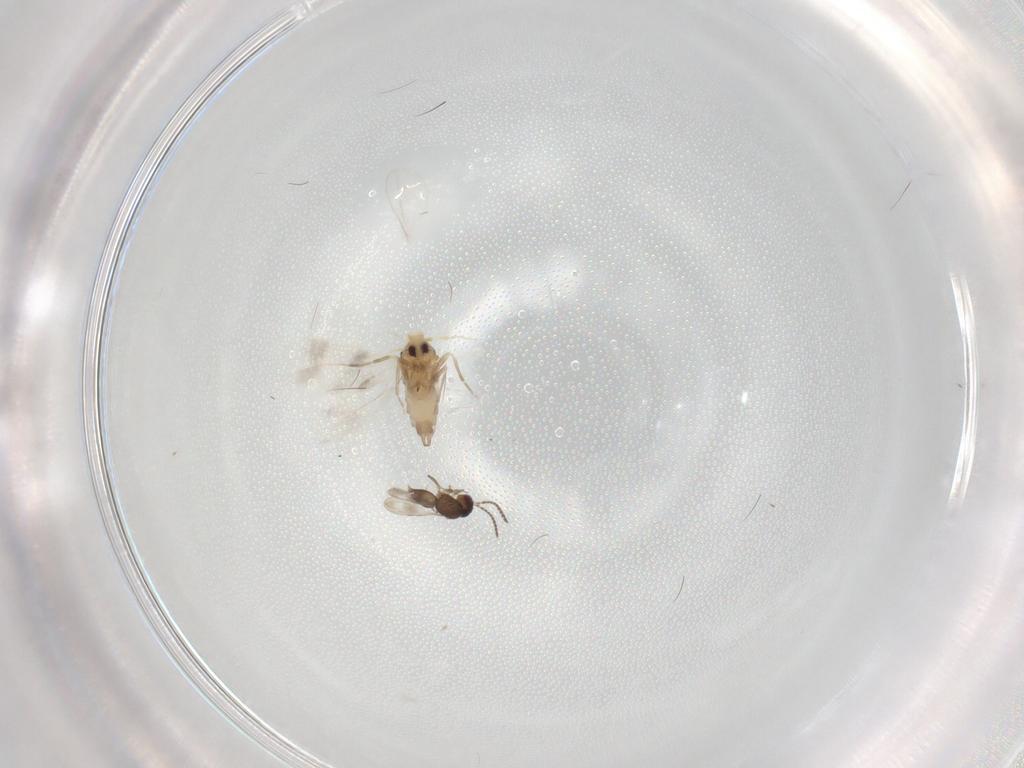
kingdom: Animalia
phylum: Arthropoda
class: Insecta
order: Hemiptera
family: Aleyrodidae
